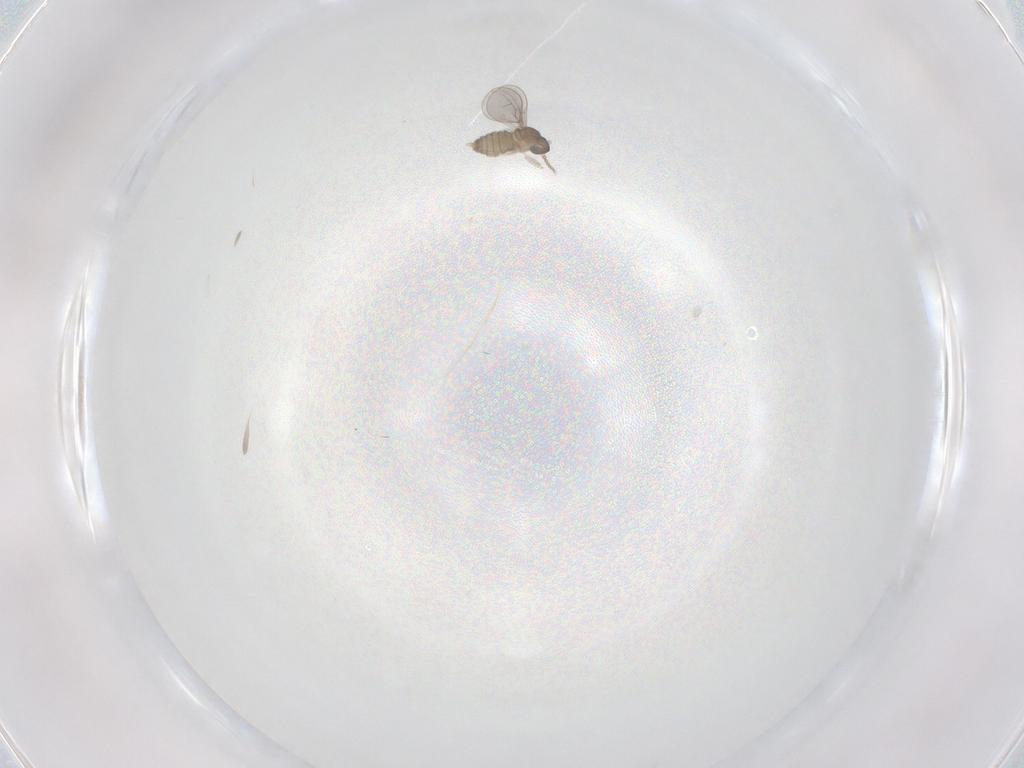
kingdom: Animalia
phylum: Arthropoda
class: Insecta
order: Diptera
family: Cecidomyiidae
